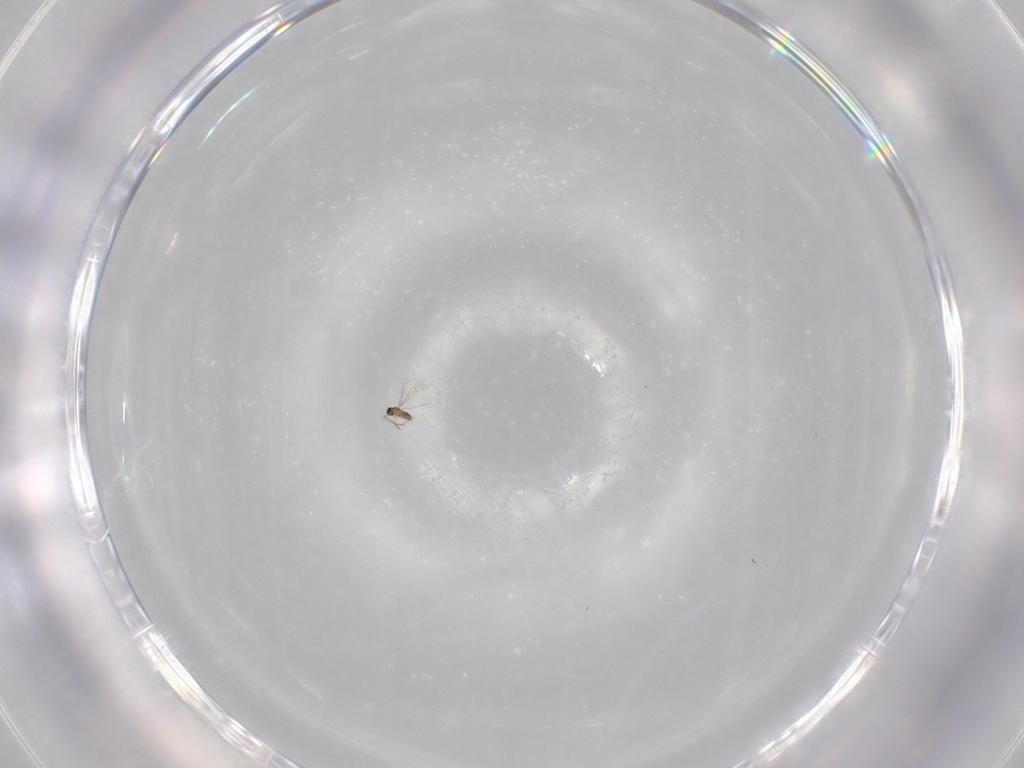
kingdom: Animalia
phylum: Arthropoda
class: Insecta
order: Hymenoptera
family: Mymaridae
